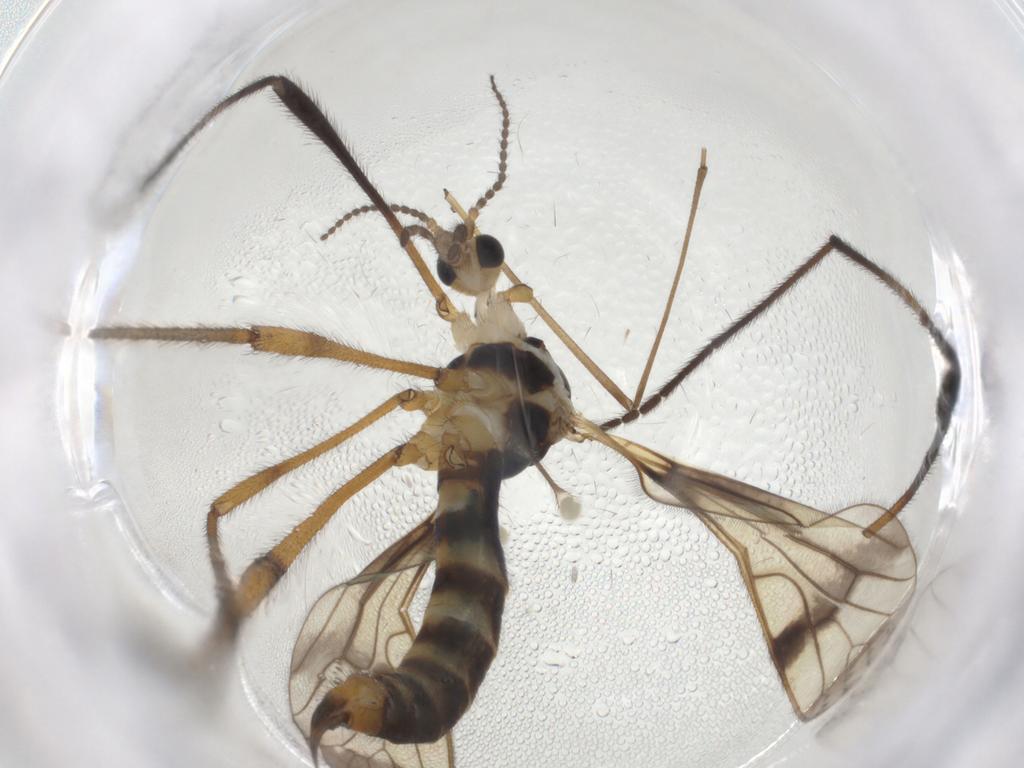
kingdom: Animalia
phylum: Arthropoda
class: Insecta
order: Diptera
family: Limoniidae
